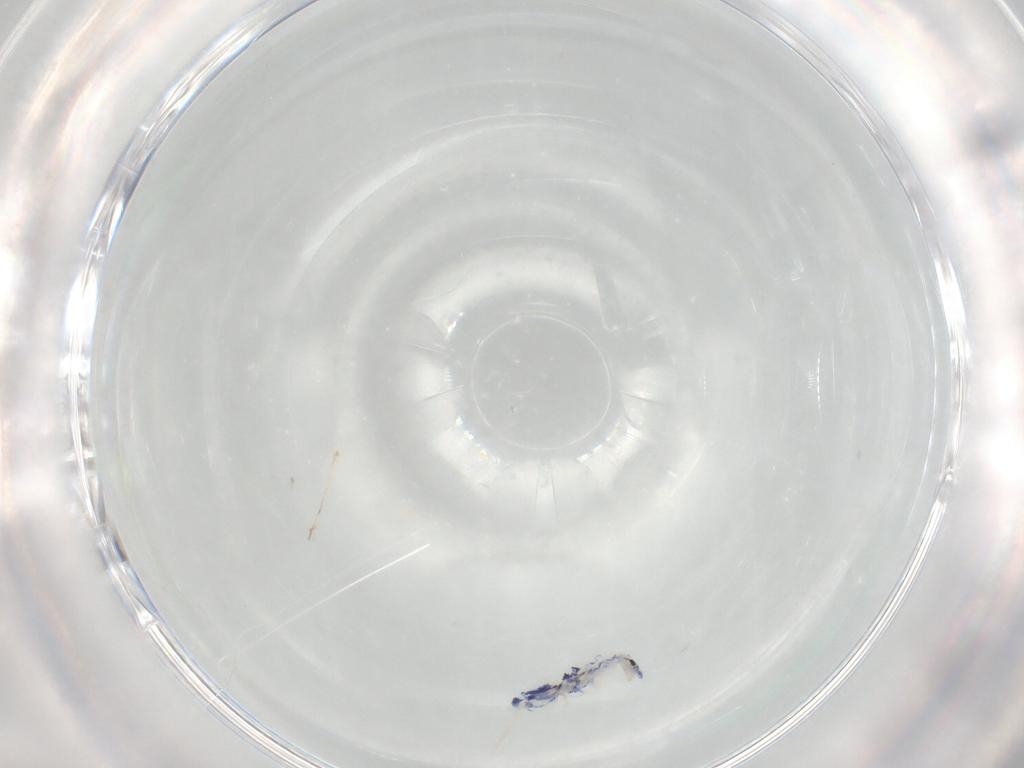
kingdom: Animalia
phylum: Arthropoda
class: Collembola
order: Entomobryomorpha
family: Entomobryidae
